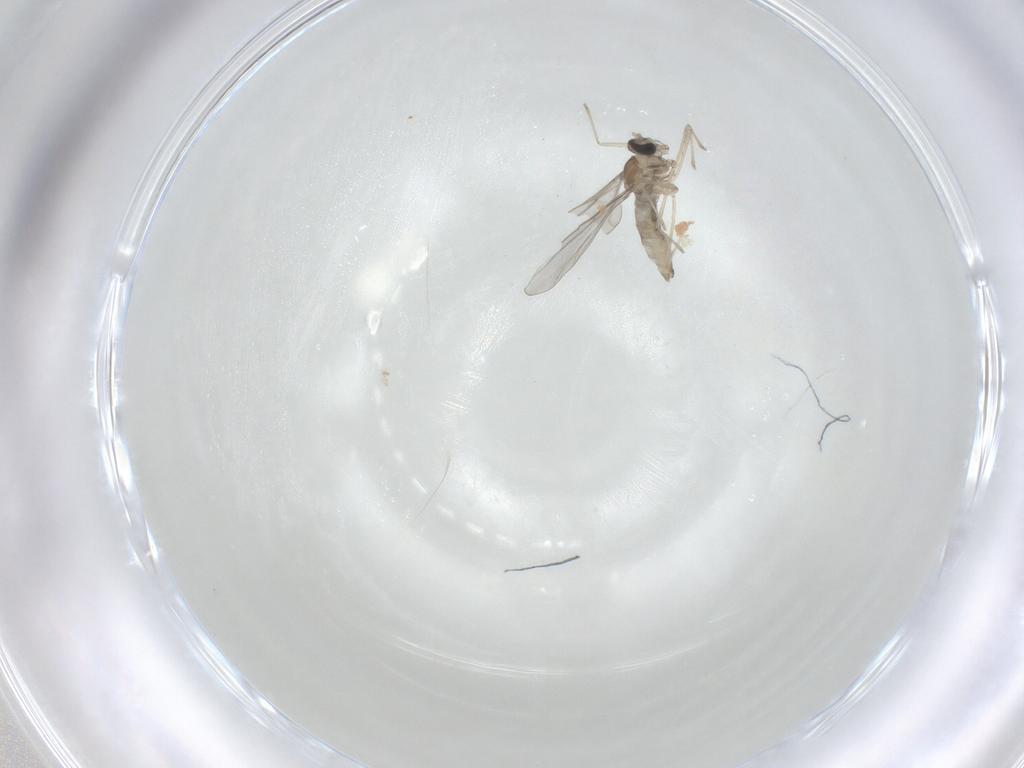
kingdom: Animalia
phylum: Arthropoda
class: Insecta
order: Diptera
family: Cecidomyiidae
